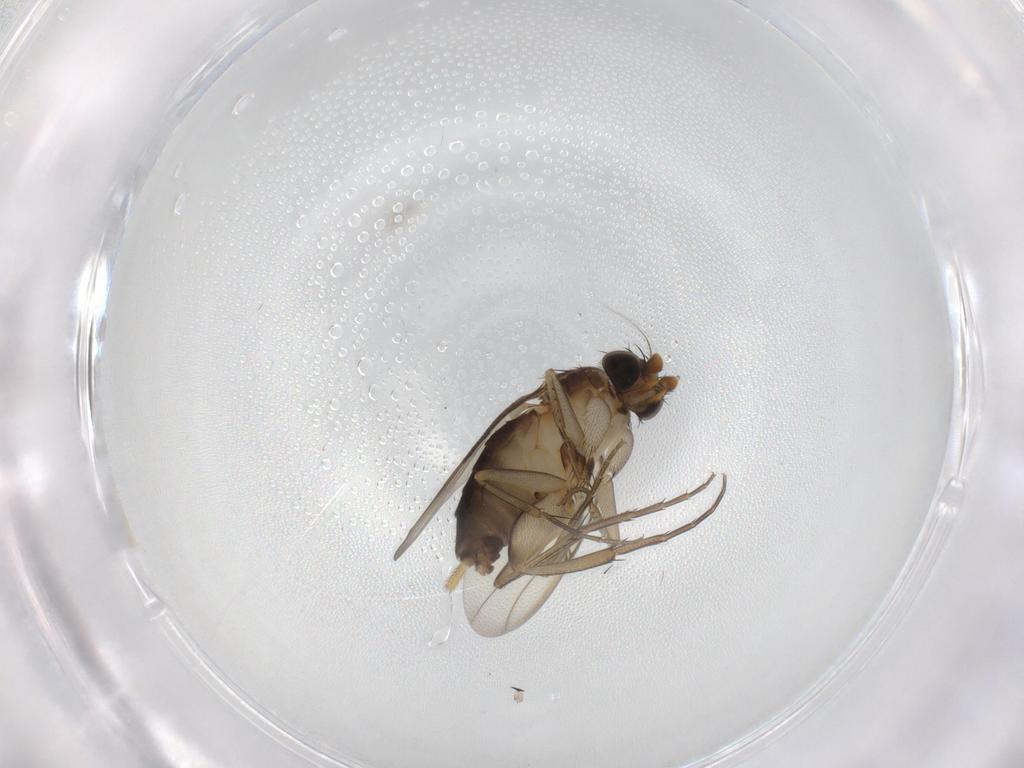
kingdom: Animalia
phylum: Arthropoda
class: Insecta
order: Diptera
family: Phoridae
